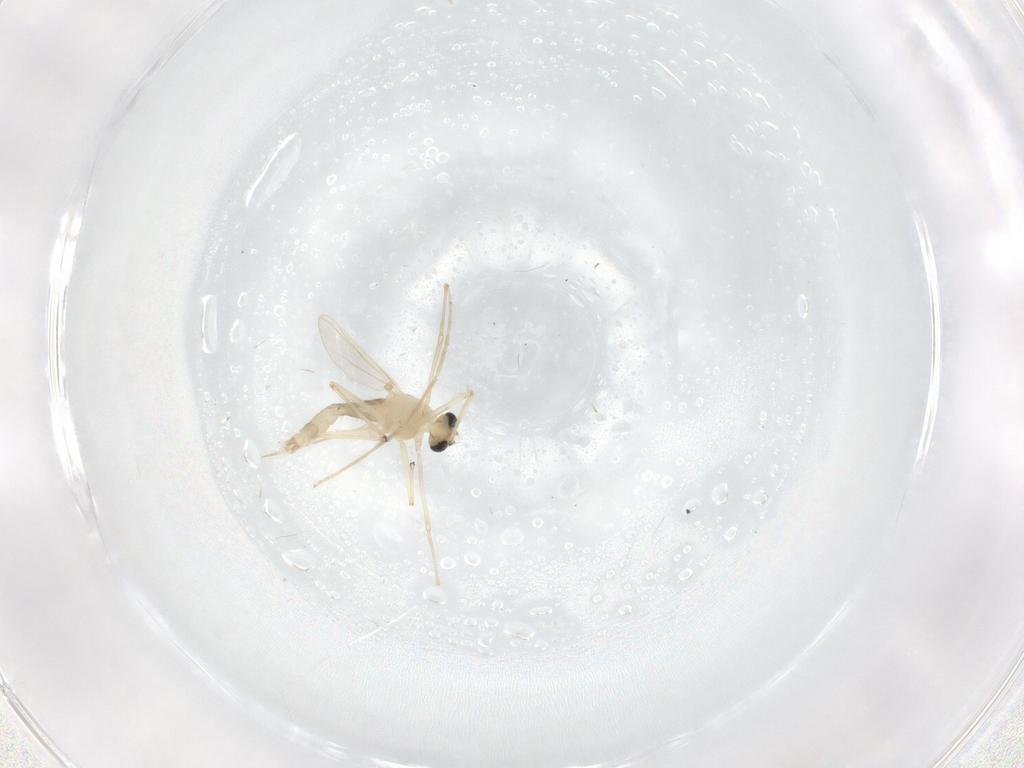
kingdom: Animalia
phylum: Arthropoda
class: Insecta
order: Diptera
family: Chironomidae
